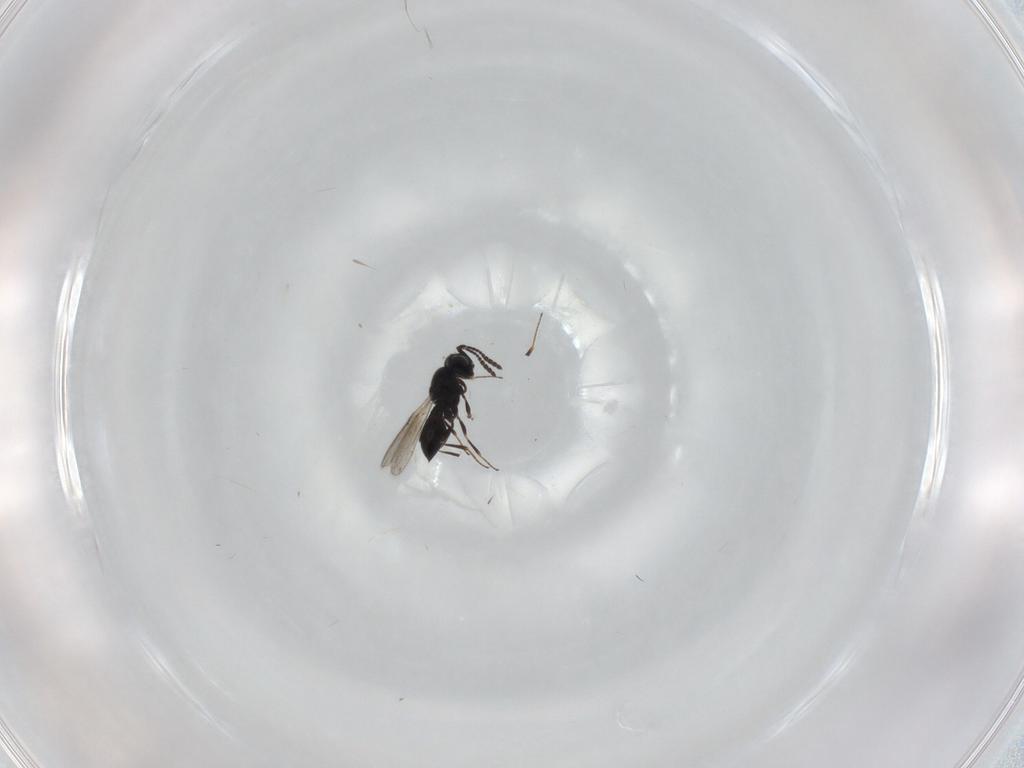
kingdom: Animalia
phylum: Arthropoda
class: Insecta
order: Hymenoptera
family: Scelionidae
